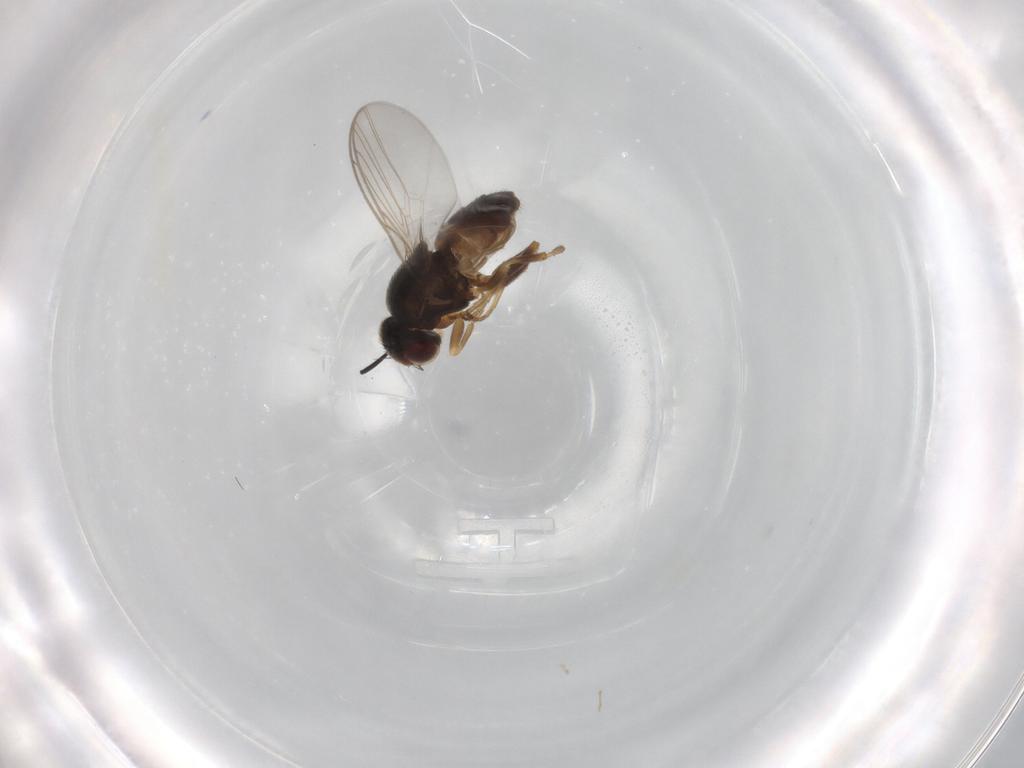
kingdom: Animalia
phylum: Arthropoda
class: Insecta
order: Diptera
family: Chloropidae
